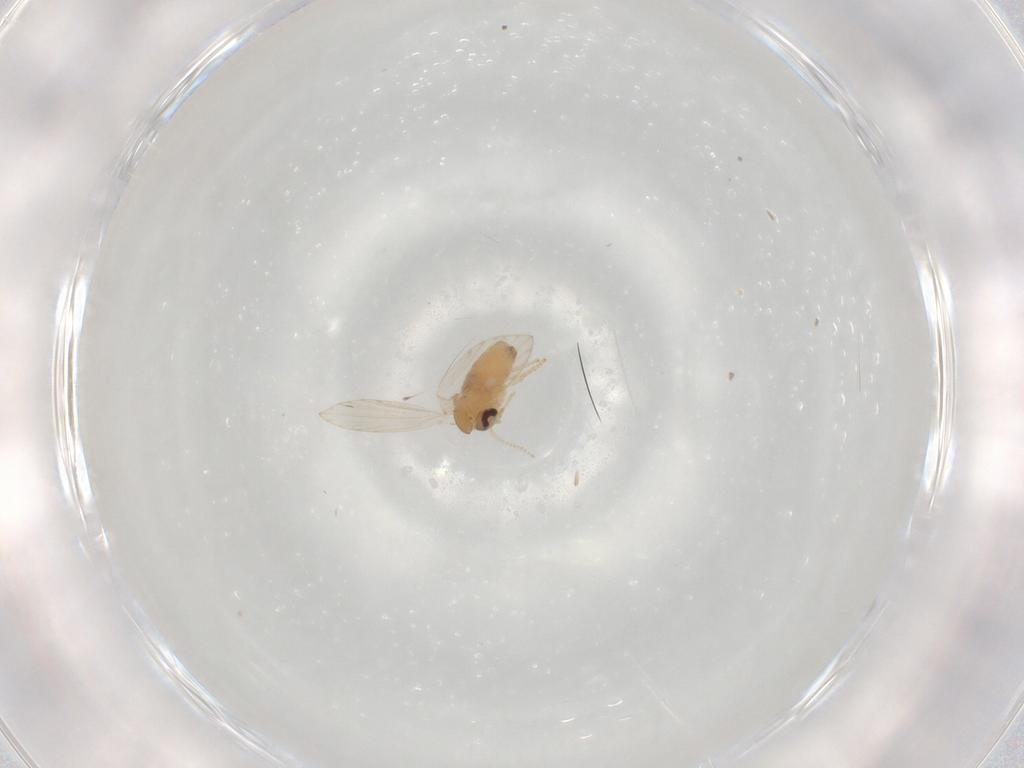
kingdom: Animalia
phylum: Arthropoda
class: Insecta
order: Diptera
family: Psychodidae
